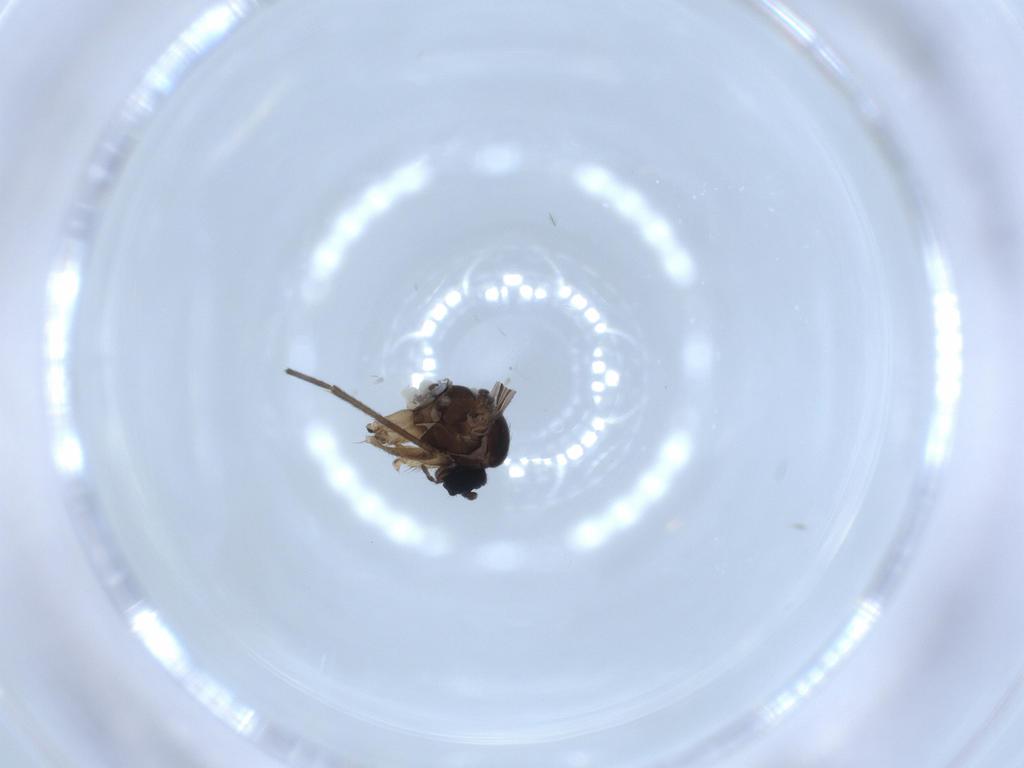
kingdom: Animalia
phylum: Arthropoda
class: Insecta
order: Diptera
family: Sciaridae
